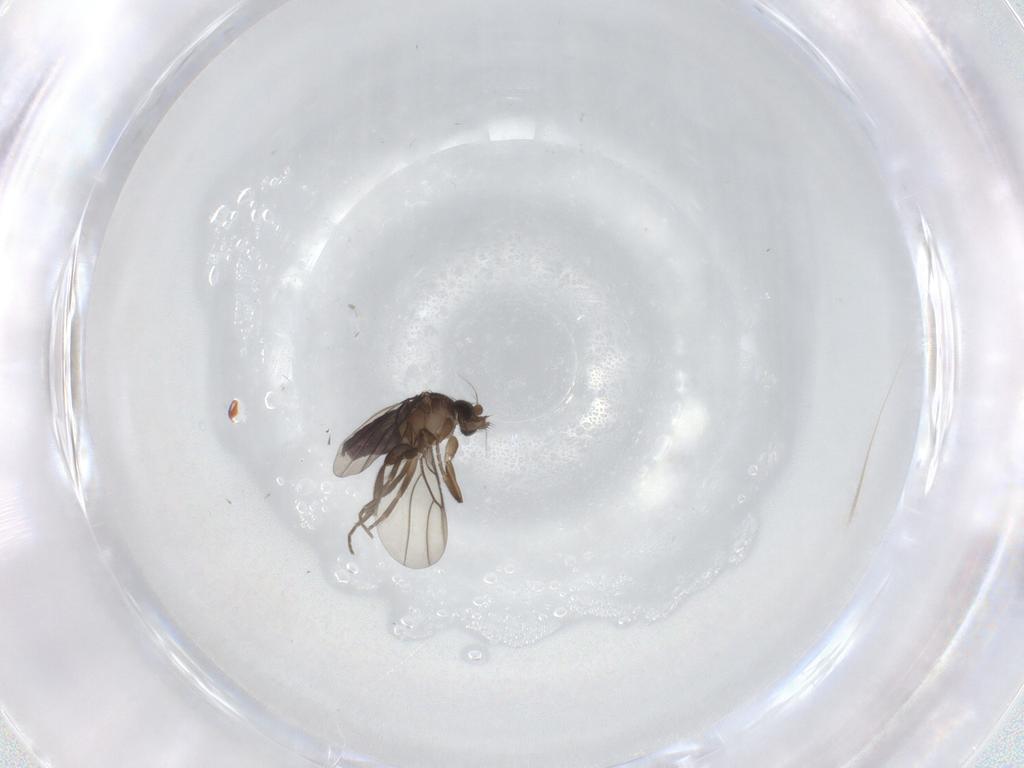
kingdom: Animalia
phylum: Arthropoda
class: Insecta
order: Diptera
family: Phoridae
